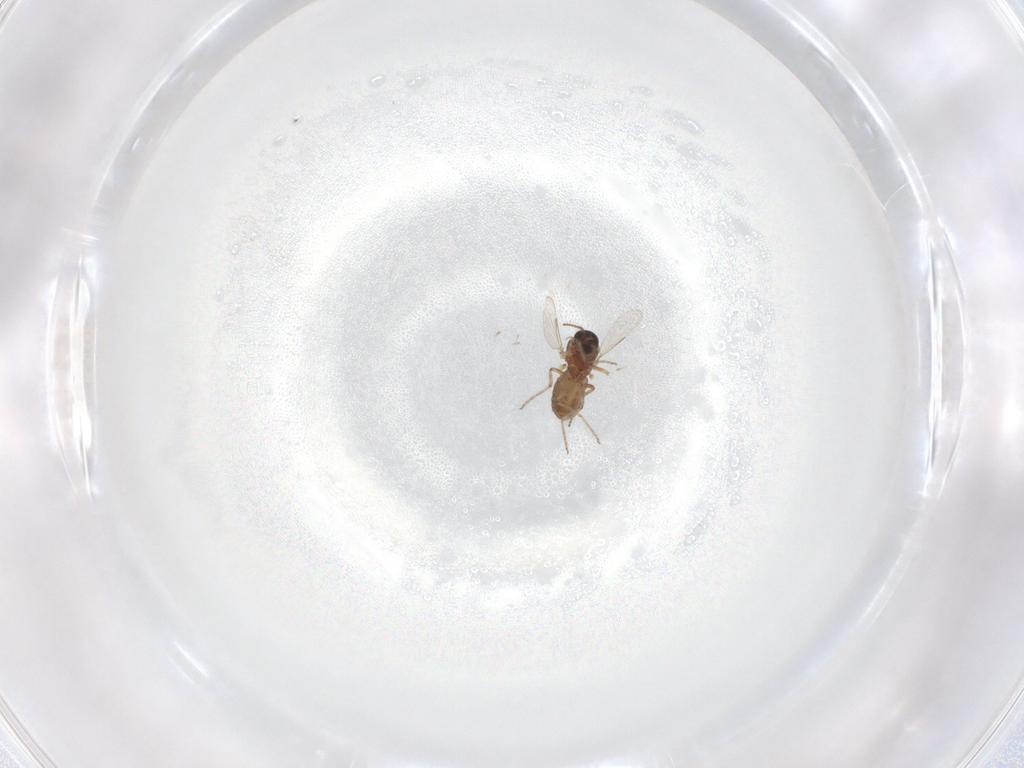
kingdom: Animalia
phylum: Arthropoda
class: Insecta
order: Diptera
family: Ceratopogonidae
